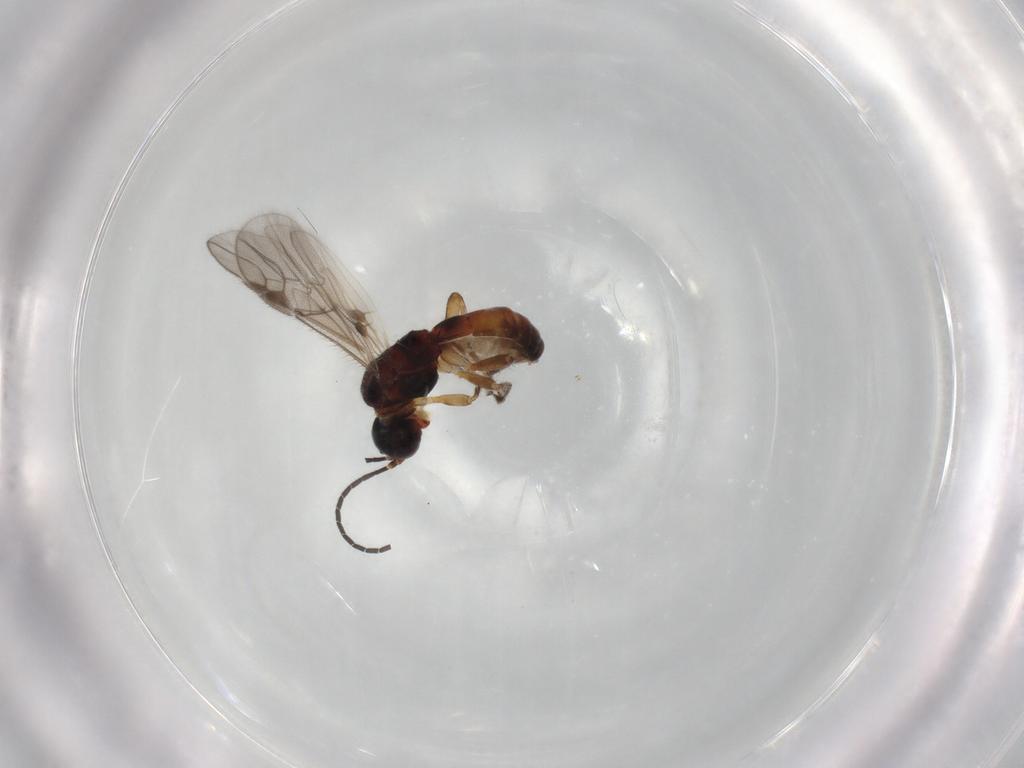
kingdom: Animalia
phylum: Arthropoda
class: Insecta
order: Hymenoptera
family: Braconidae
